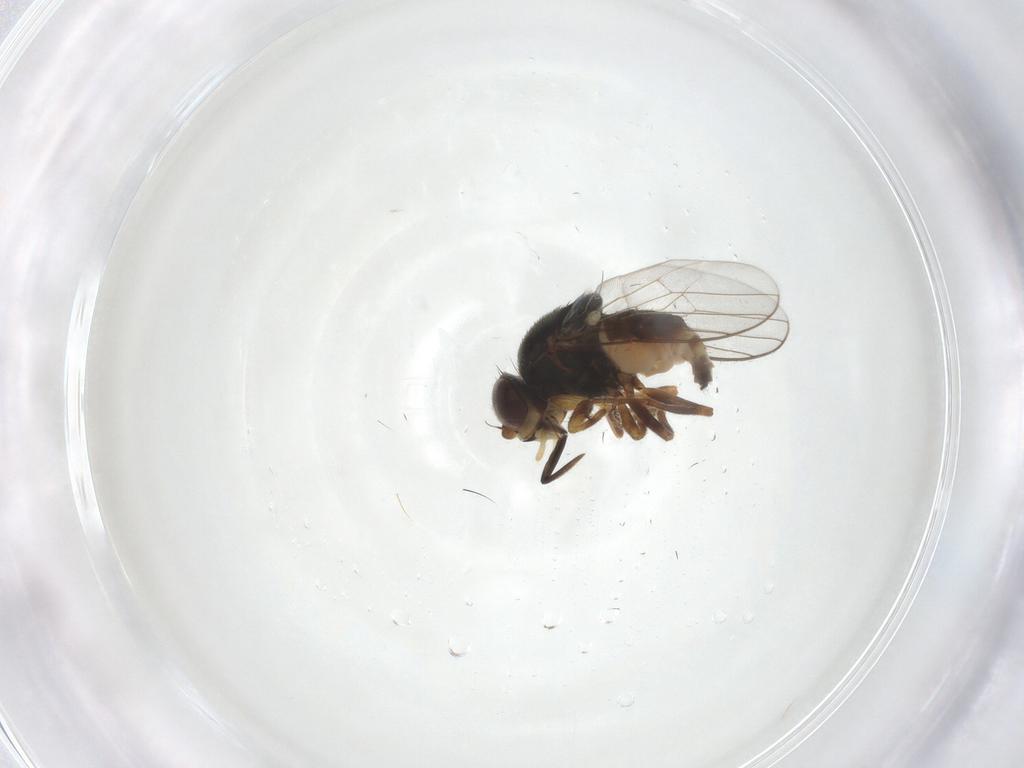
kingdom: Animalia
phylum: Arthropoda
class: Insecta
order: Diptera
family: Chloropidae
